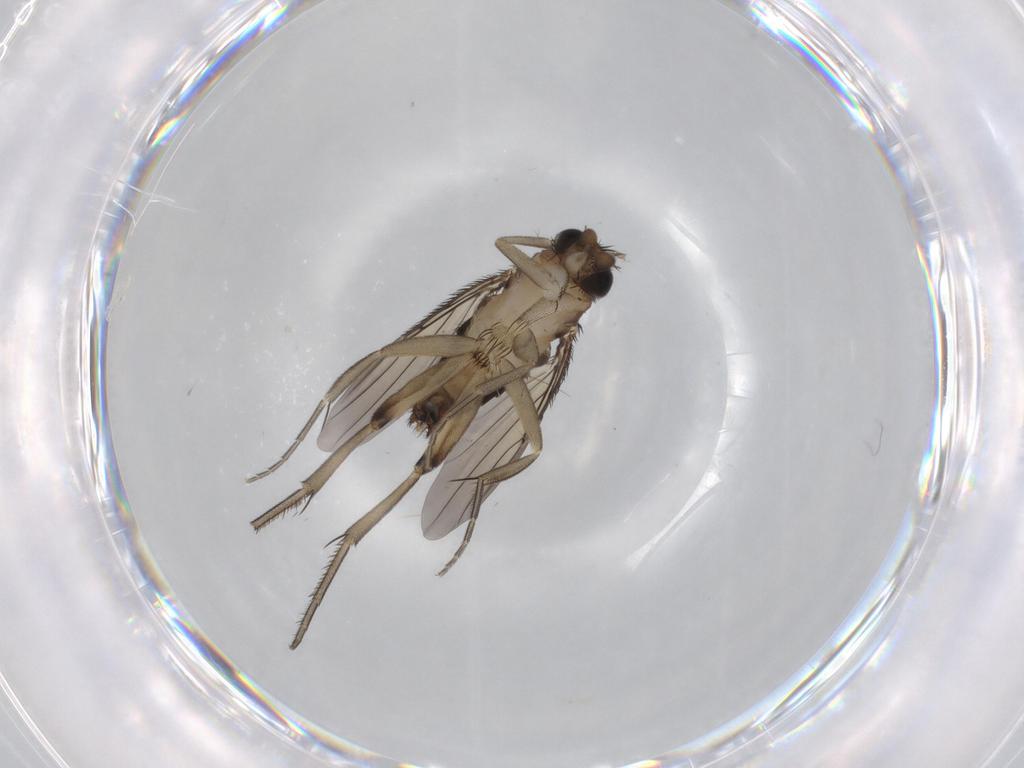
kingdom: Animalia
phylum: Arthropoda
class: Insecta
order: Diptera
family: Phoridae
